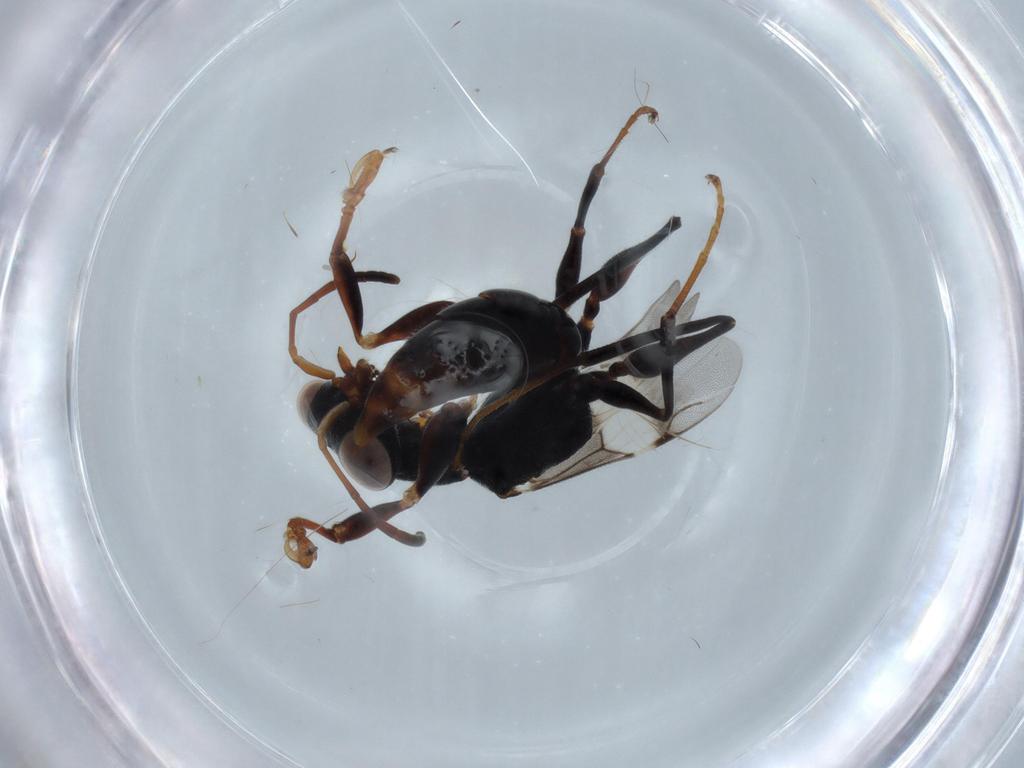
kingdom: Animalia
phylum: Arthropoda
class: Insecta
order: Hymenoptera
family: Dryinidae
